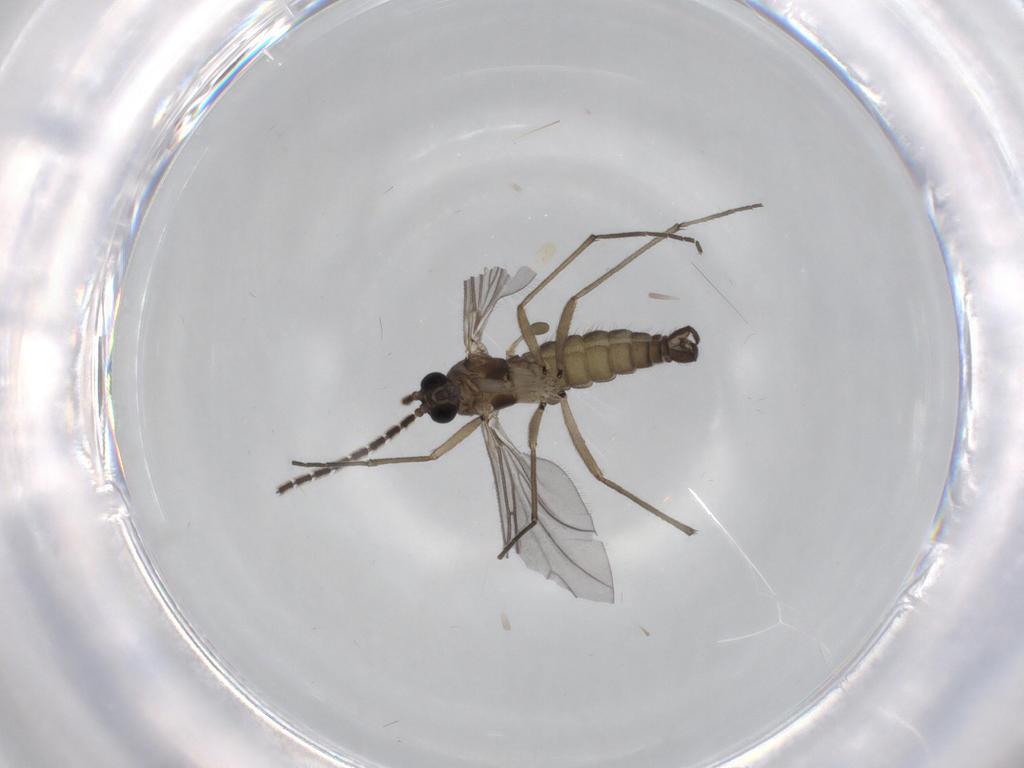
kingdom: Animalia
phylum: Arthropoda
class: Insecta
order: Diptera
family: Sciaridae
